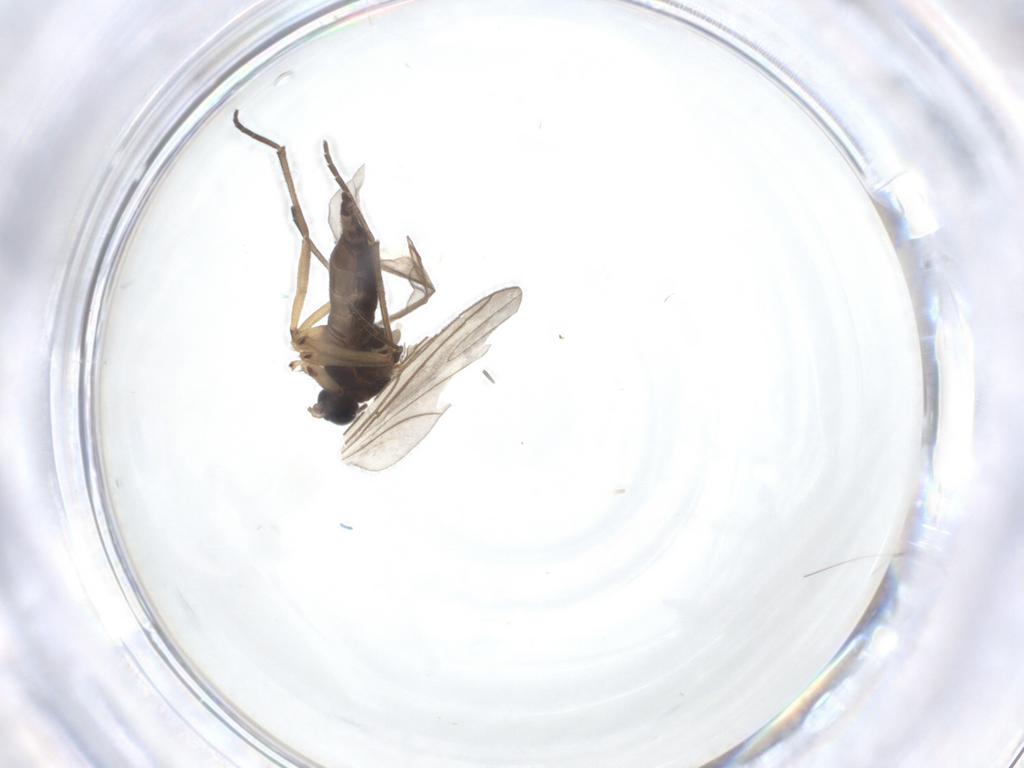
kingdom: Animalia
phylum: Arthropoda
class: Insecta
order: Diptera
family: Sciaridae
